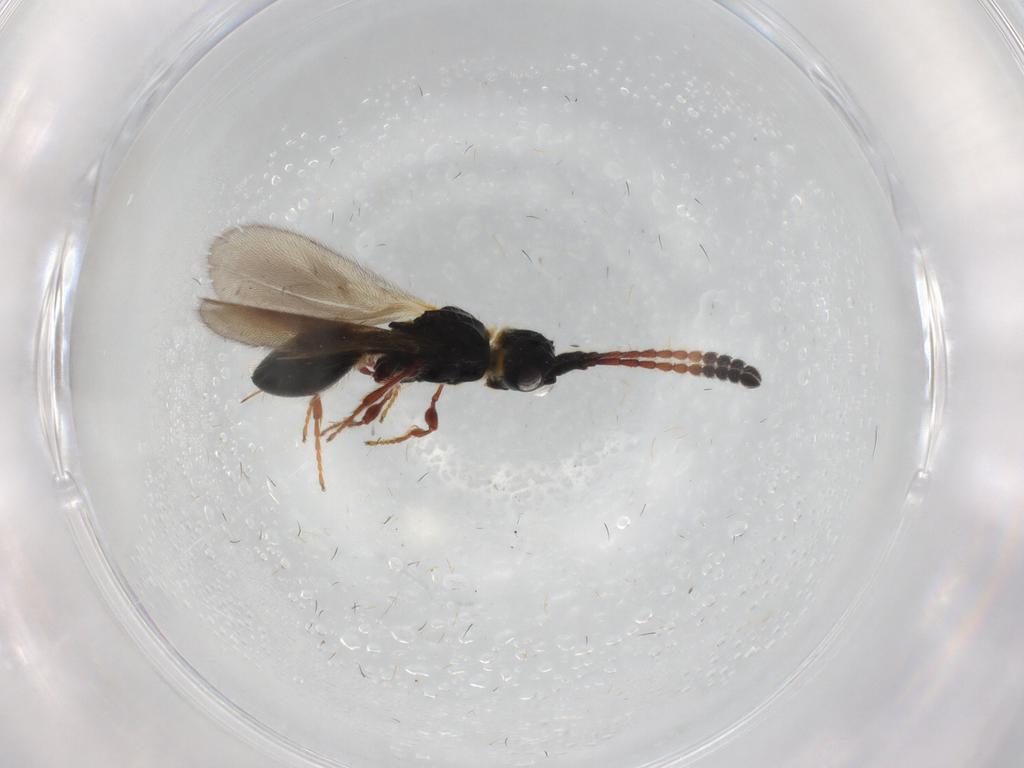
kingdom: Animalia
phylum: Arthropoda
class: Insecta
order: Hymenoptera
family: Diapriidae
